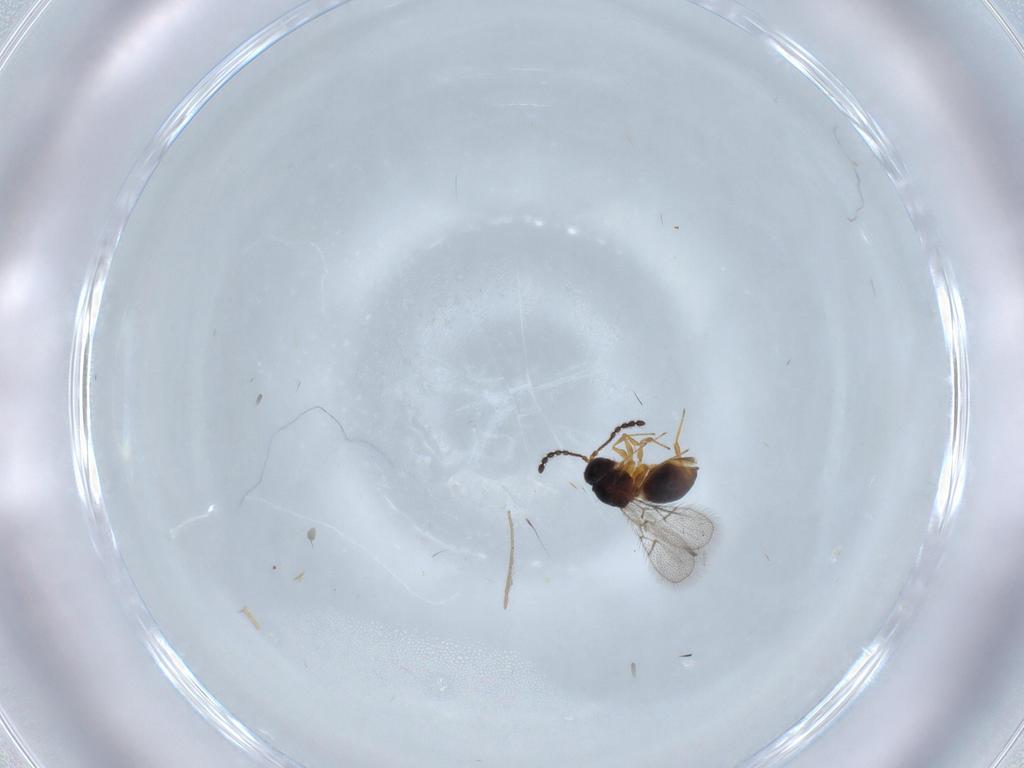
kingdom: Animalia
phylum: Arthropoda
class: Insecta
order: Hymenoptera
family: Figitidae
